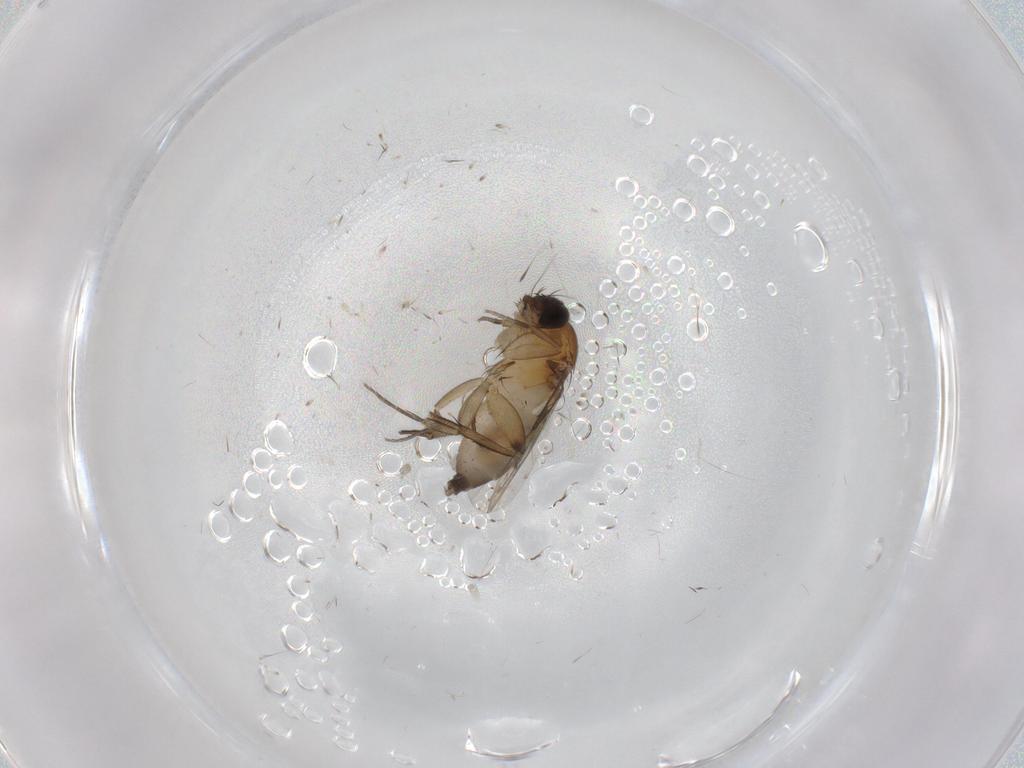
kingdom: Animalia
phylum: Arthropoda
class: Insecta
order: Diptera
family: Phoridae
